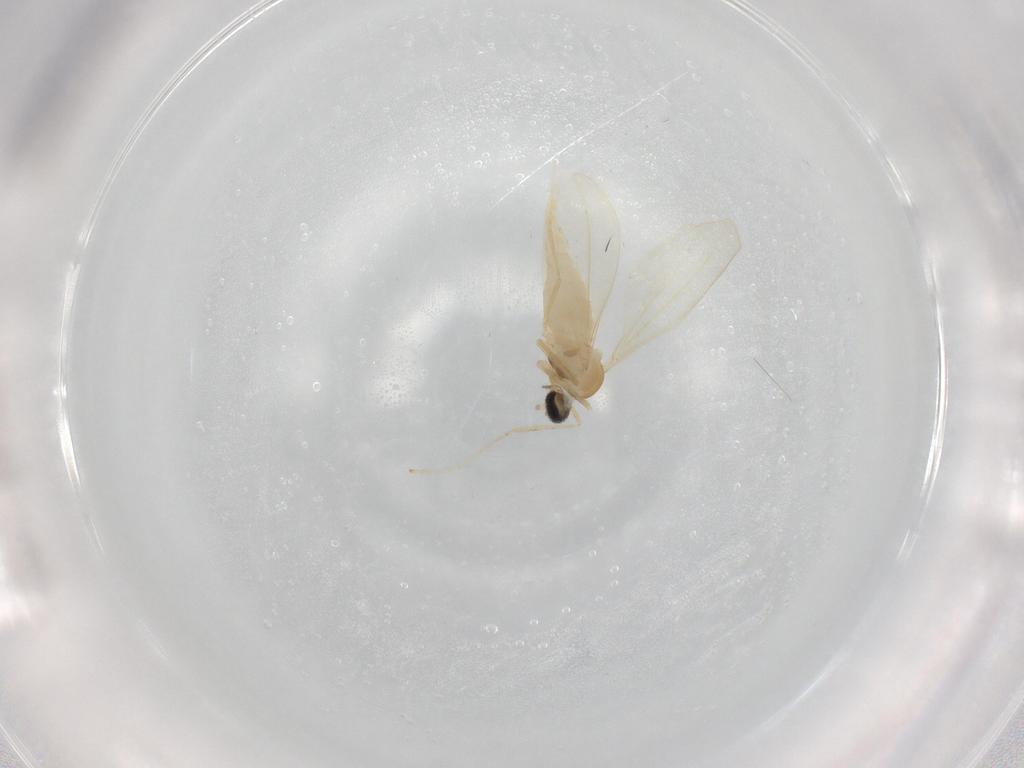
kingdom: Animalia
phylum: Arthropoda
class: Insecta
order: Diptera
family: Cecidomyiidae
